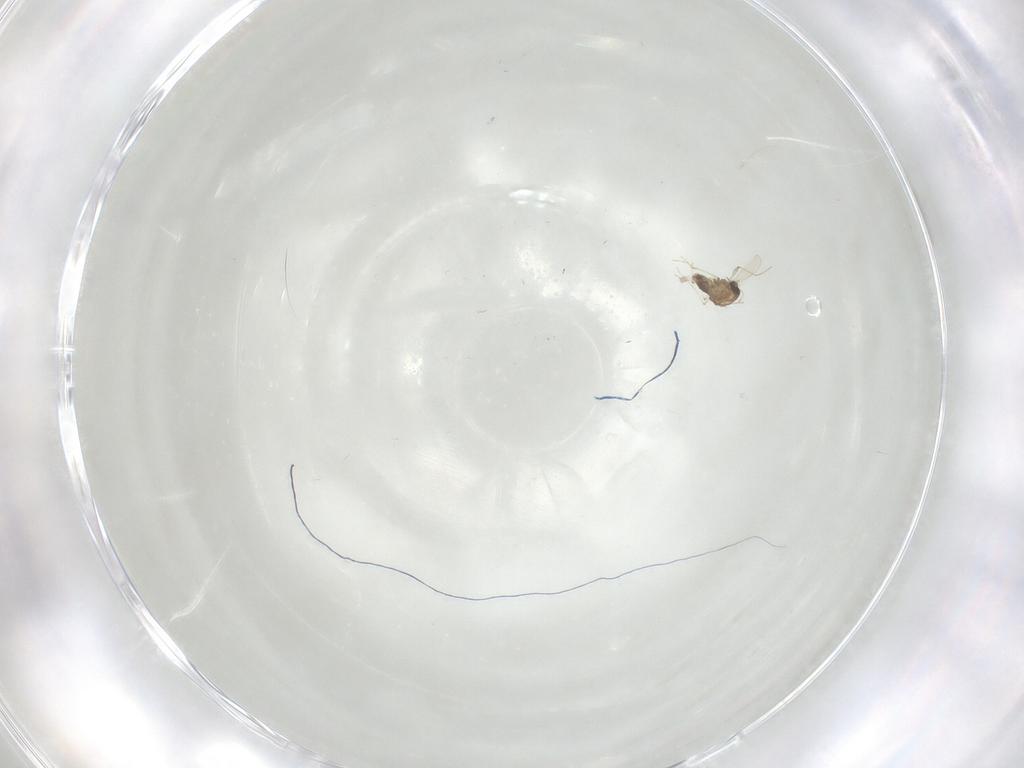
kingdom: Animalia
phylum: Arthropoda
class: Insecta
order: Diptera
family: Chironomidae
